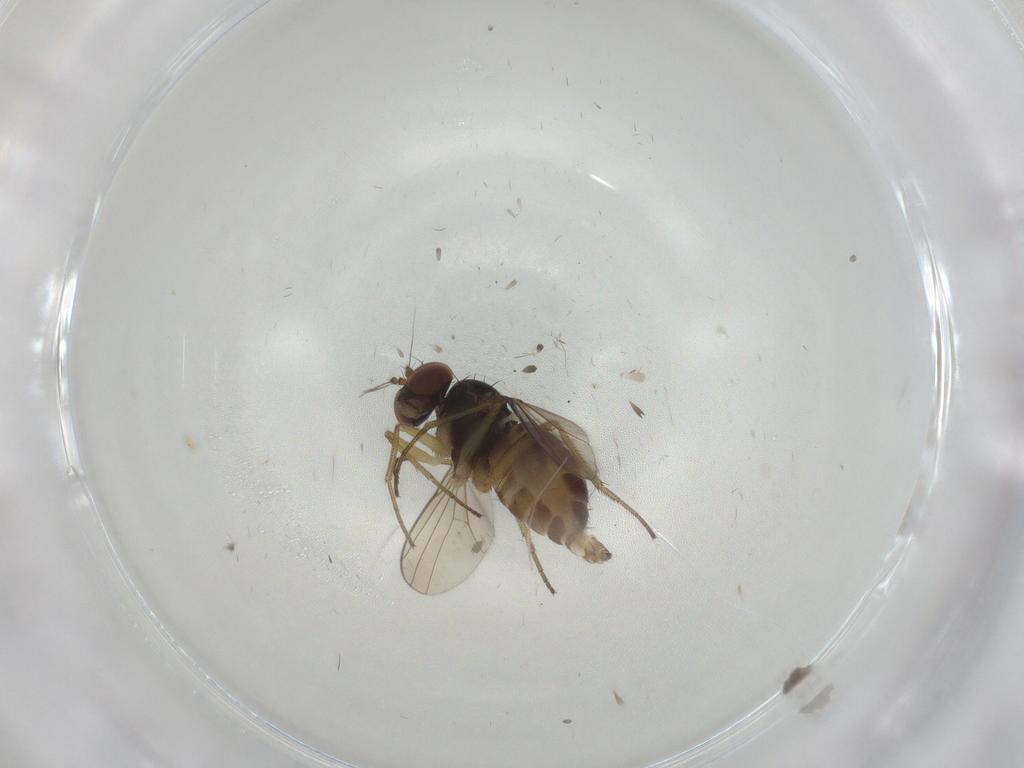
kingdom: Animalia
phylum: Arthropoda
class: Insecta
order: Diptera
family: Dolichopodidae
